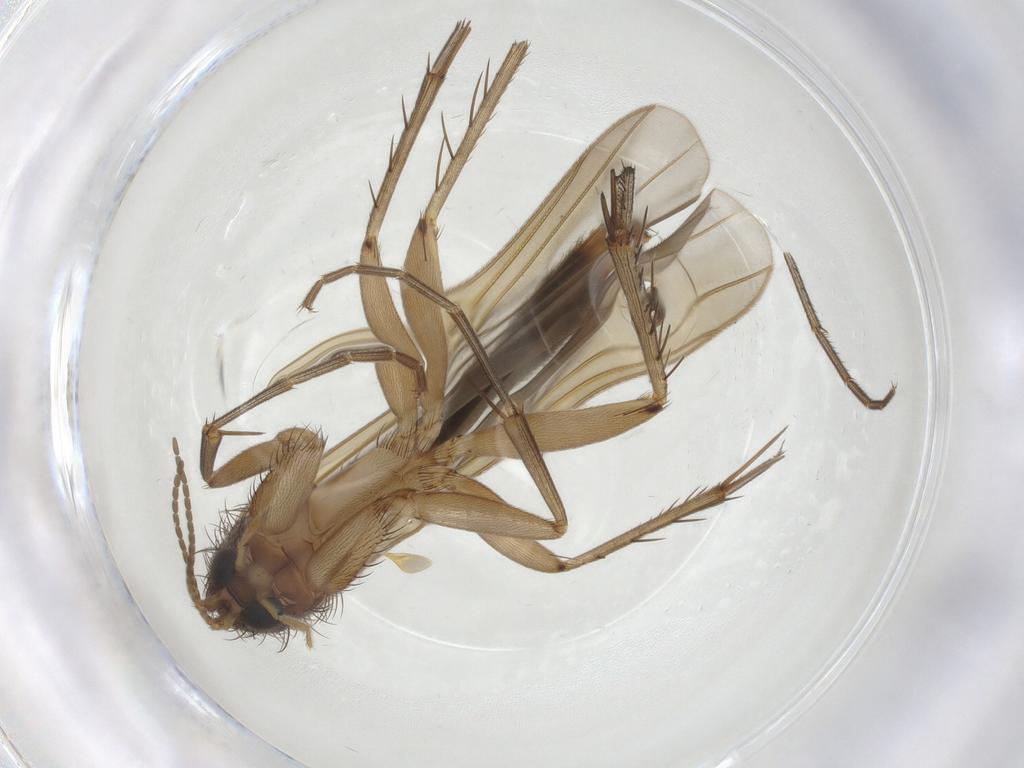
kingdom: Animalia
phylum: Arthropoda
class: Insecta
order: Diptera
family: Mycetophilidae
